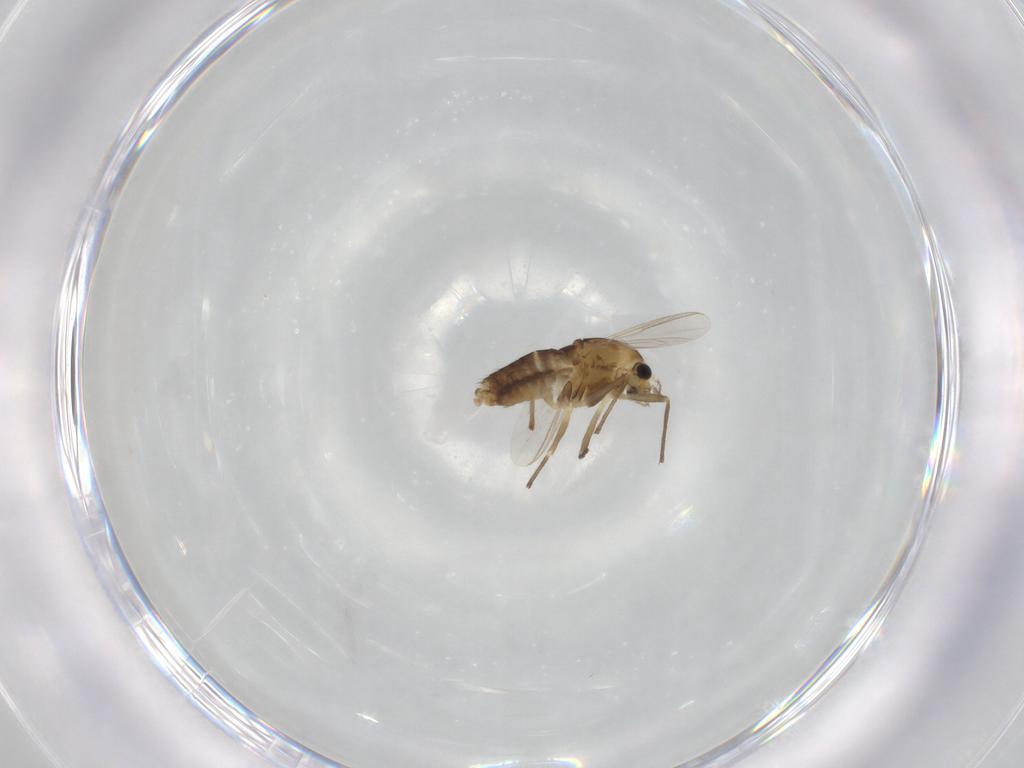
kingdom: Animalia
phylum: Arthropoda
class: Insecta
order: Diptera
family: Chironomidae
